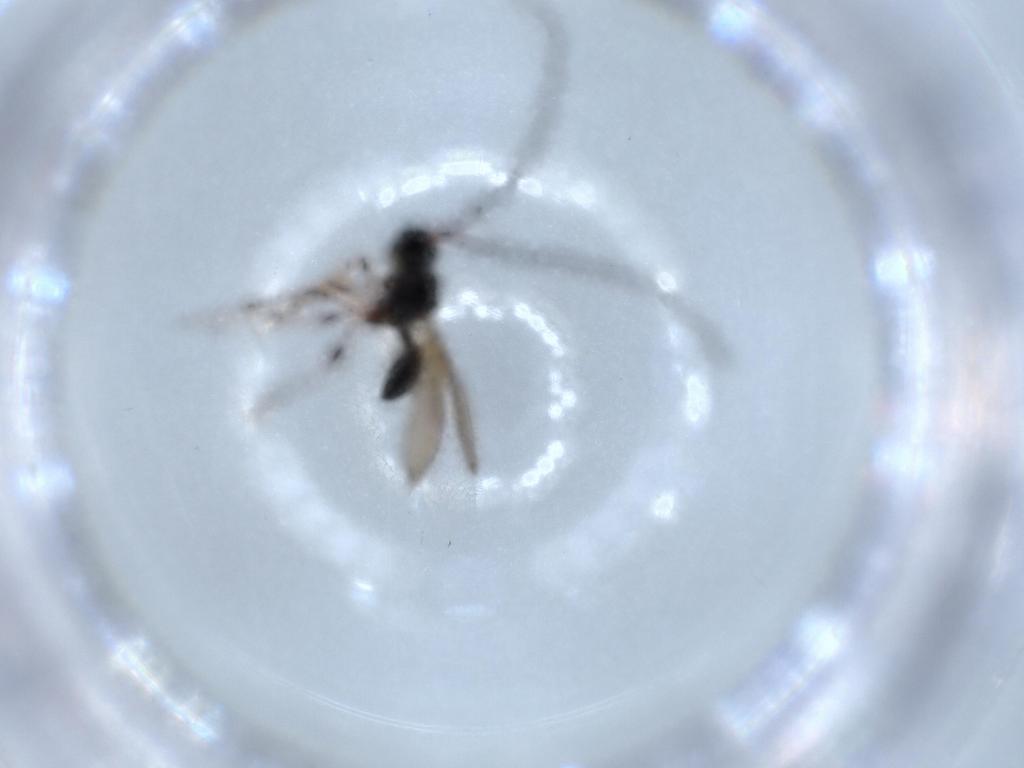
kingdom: Animalia
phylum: Arthropoda
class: Insecta
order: Hymenoptera
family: Diapriidae
